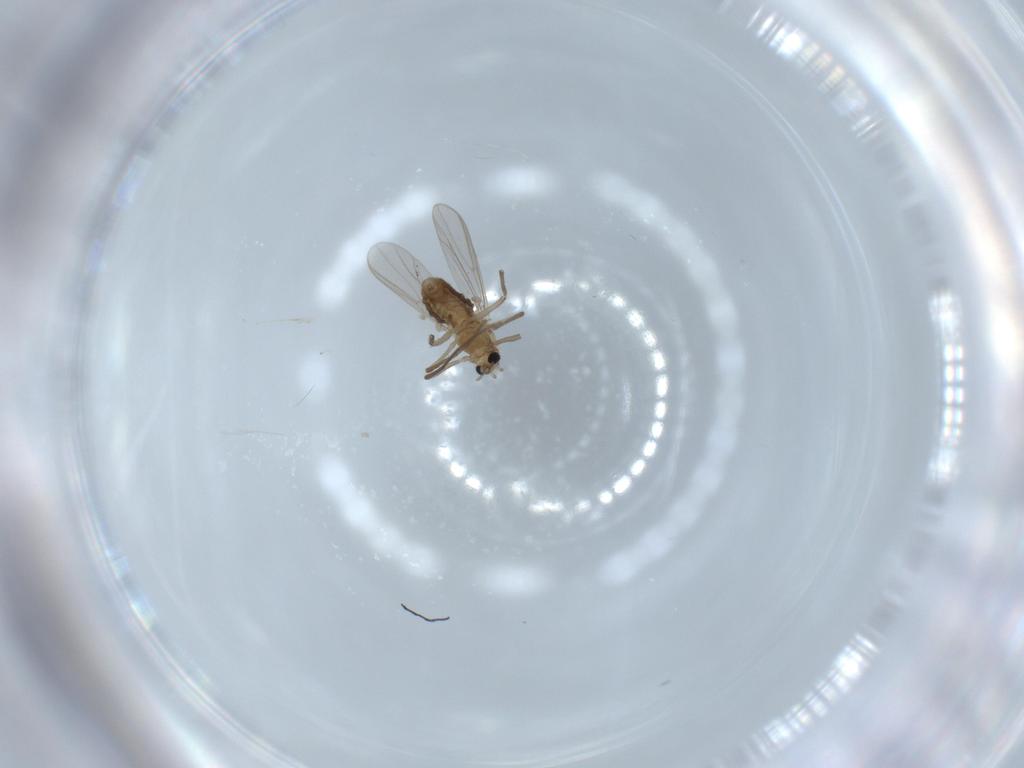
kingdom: Animalia
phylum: Arthropoda
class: Insecta
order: Diptera
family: Chironomidae
